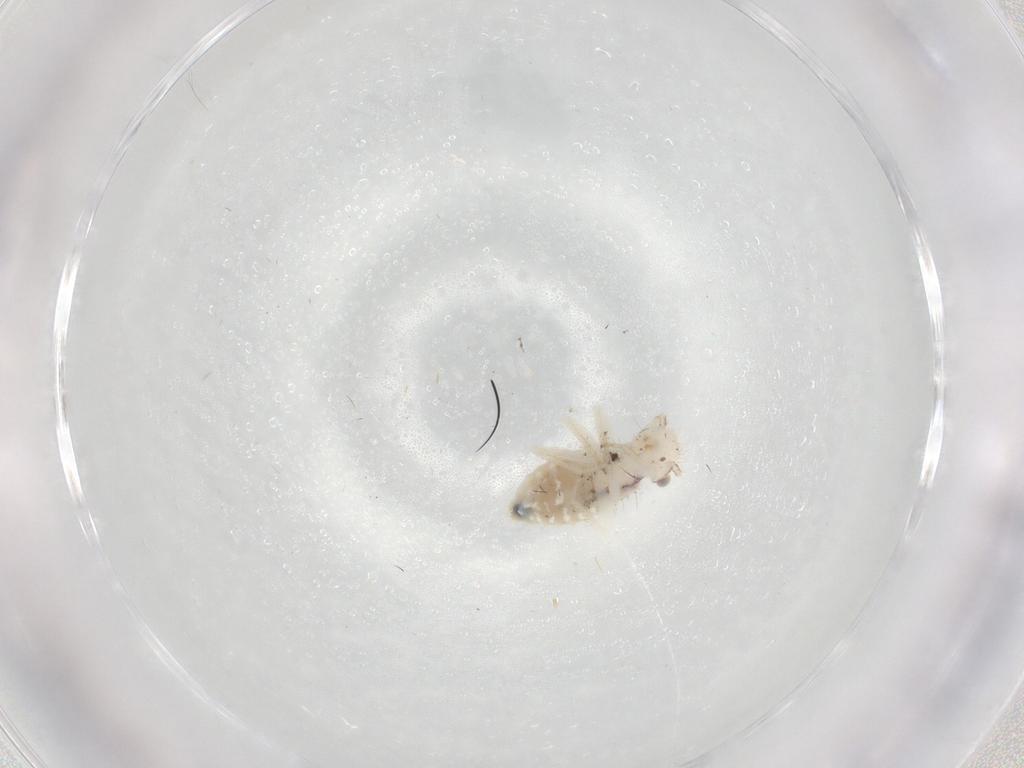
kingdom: Animalia
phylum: Arthropoda
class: Insecta
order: Psocodea
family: Pseudocaeciliidae
